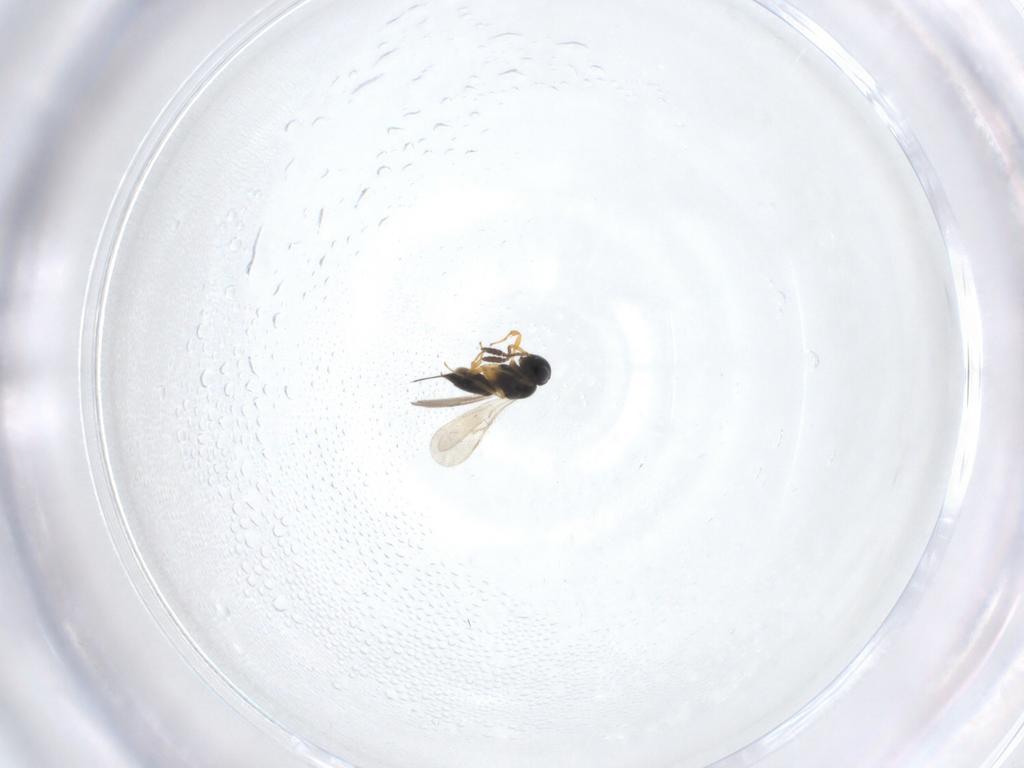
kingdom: Animalia
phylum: Arthropoda
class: Insecta
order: Hymenoptera
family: Scelionidae
